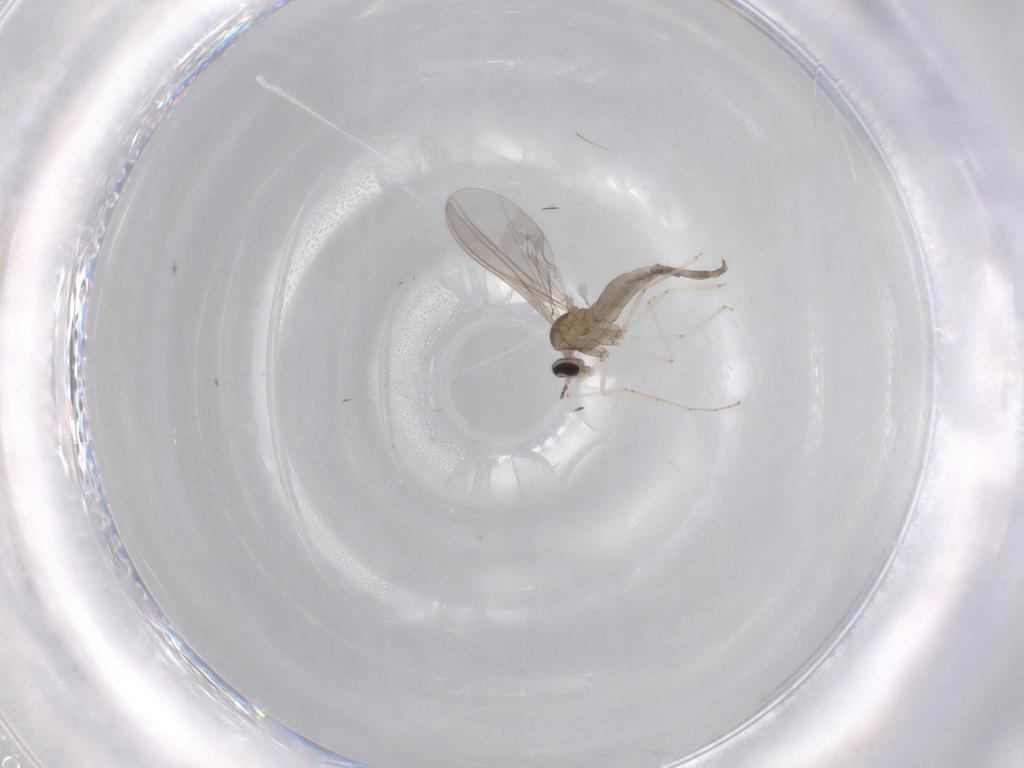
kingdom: Animalia
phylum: Arthropoda
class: Insecta
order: Diptera
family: Cecidomyiidae
